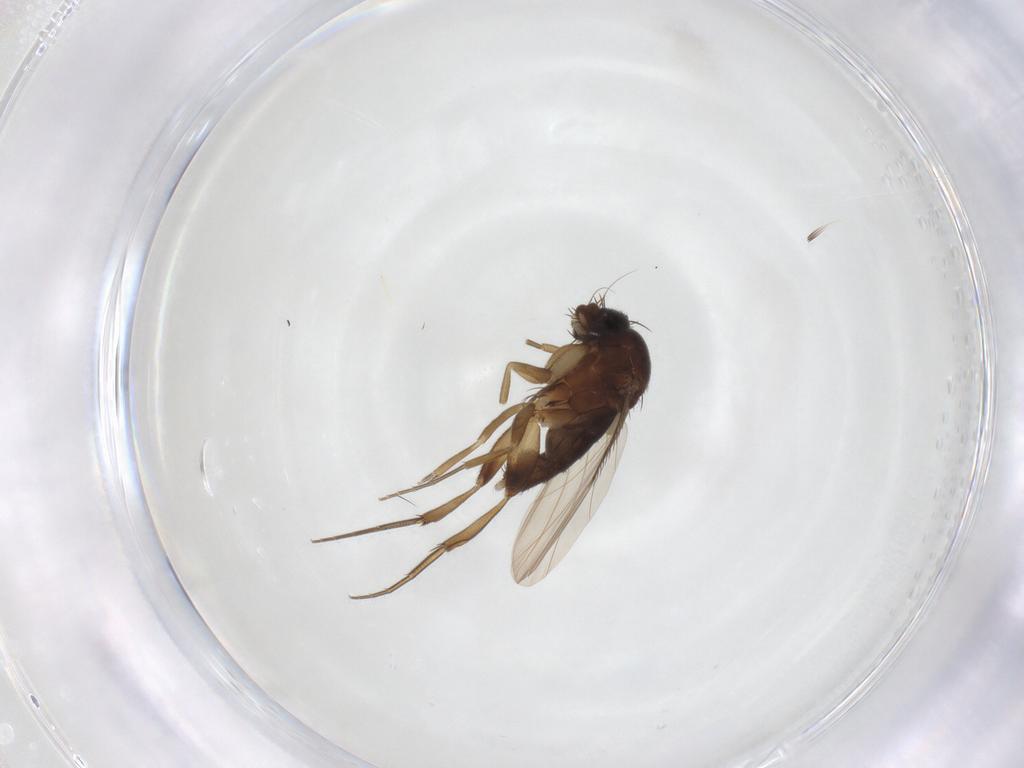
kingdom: Animalia
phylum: Arthropoda
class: Insecta
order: Diptera
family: Phoridae
